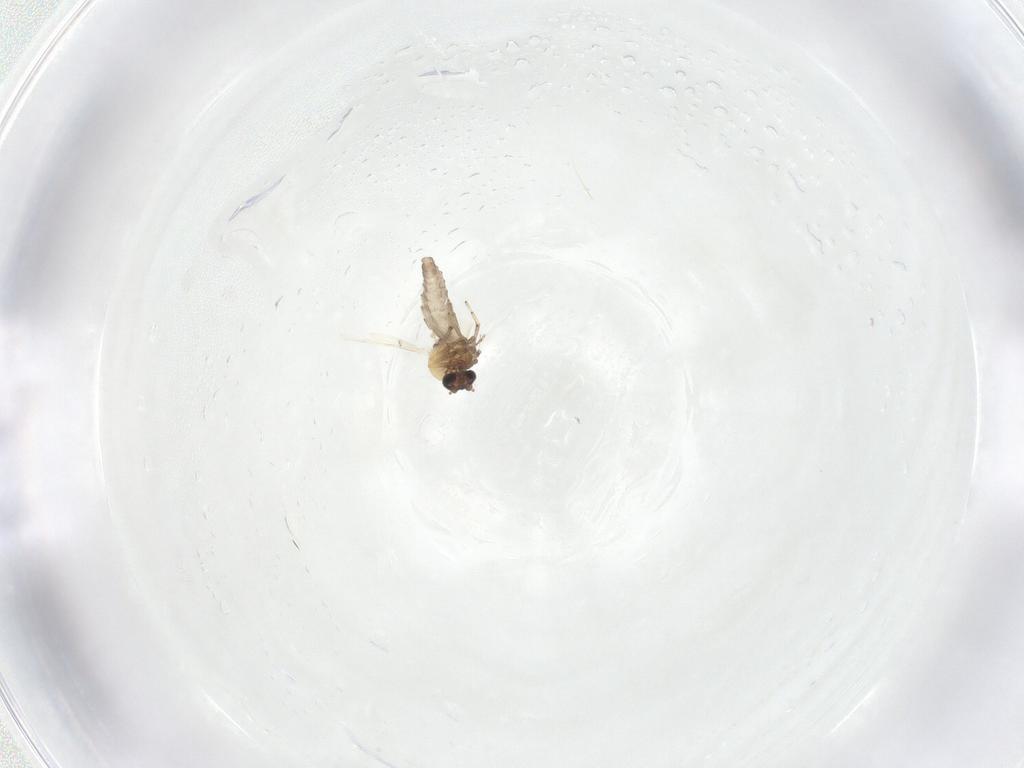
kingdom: Animalia
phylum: Arthropoda
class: Insecta
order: Diptera
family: Ceratopogonidae
